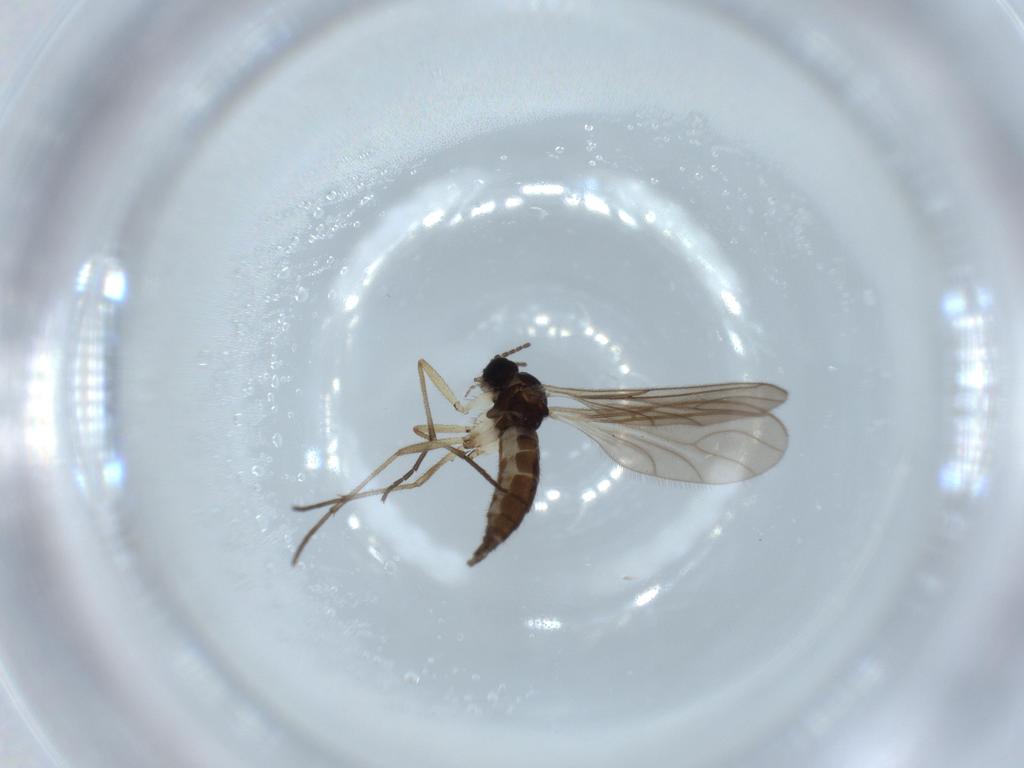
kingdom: Animalia
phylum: Arthropoda
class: Insecta
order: Diptera
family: Sciaridae
